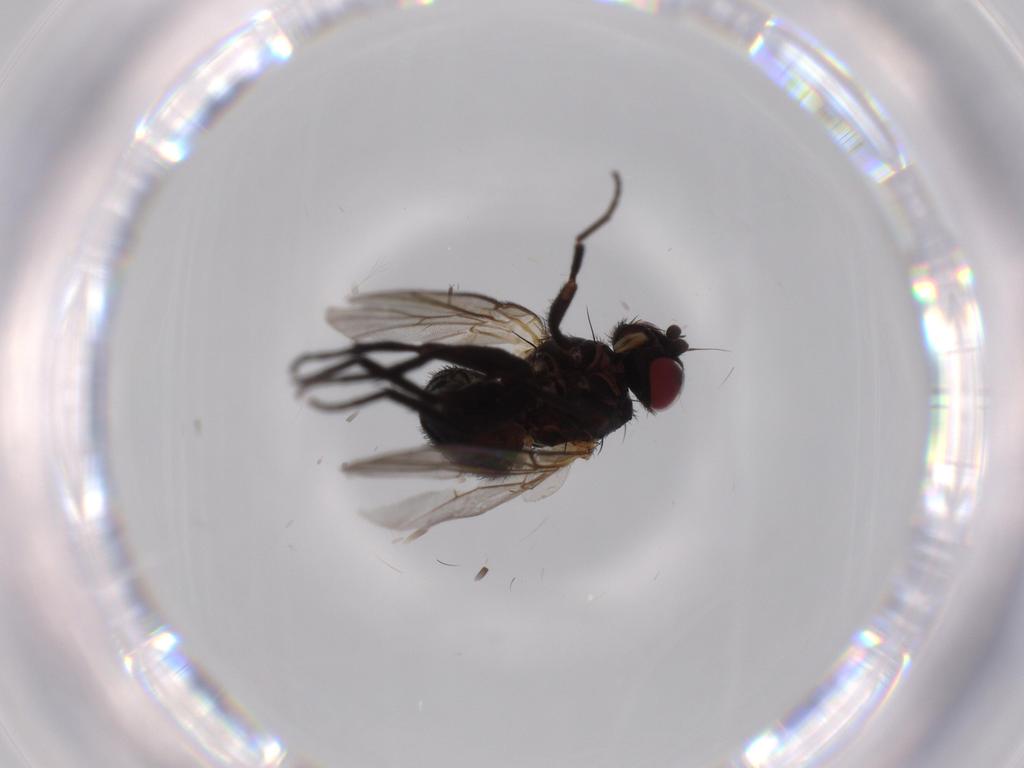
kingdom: Animalia
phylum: Arthropoda
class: Insecta
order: Diptera
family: Agromyzidae
